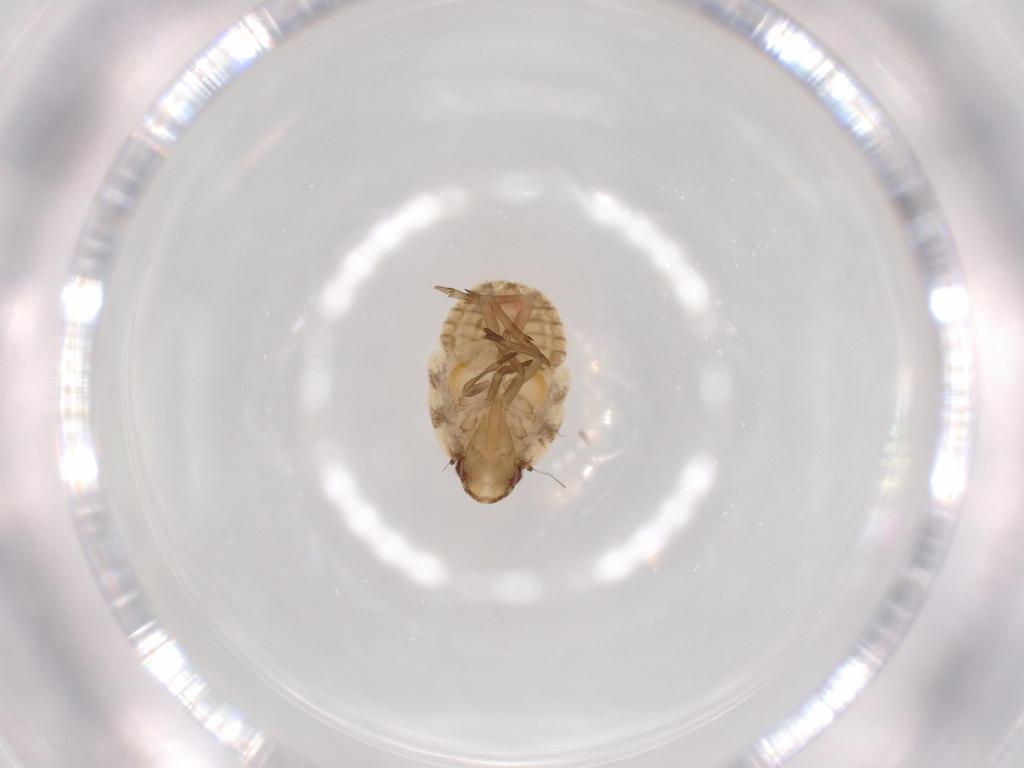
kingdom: Animalia
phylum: Arthropoda
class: Insecta
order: Hemiptera
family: Flatidae
